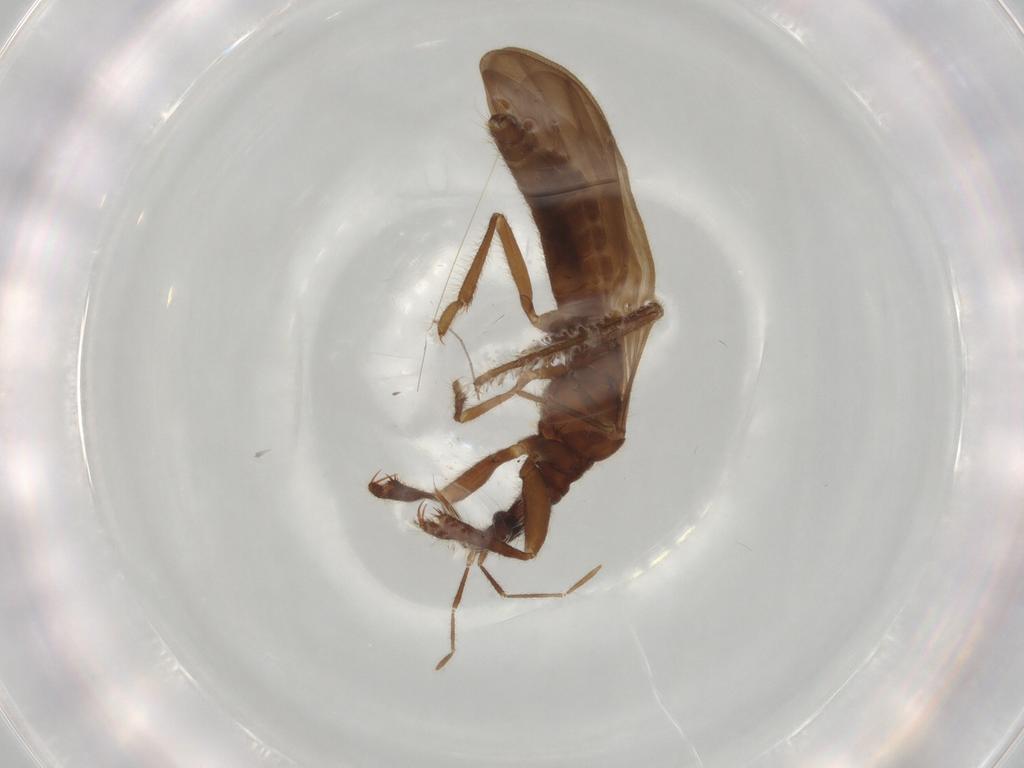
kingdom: Animalia
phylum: Arthropoda
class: Insecta
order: Hemiptera
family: Enicocephalidae
